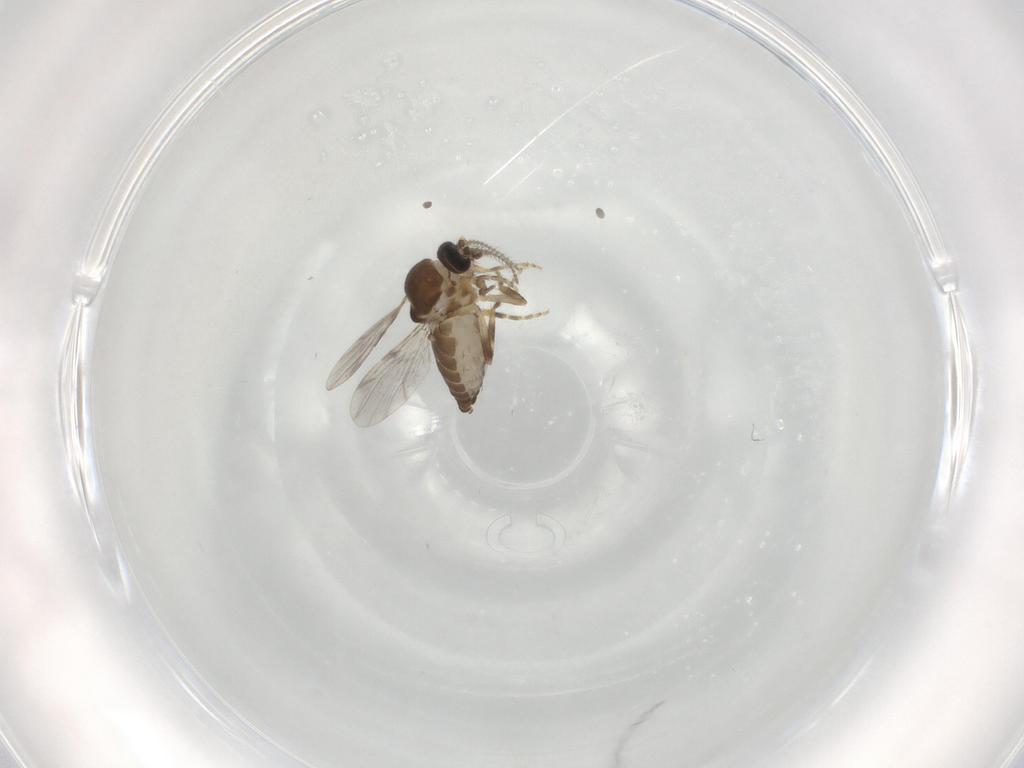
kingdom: Animalia
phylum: Arthropoda
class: Insecta
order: Diptera
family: Ceratopogonidae
